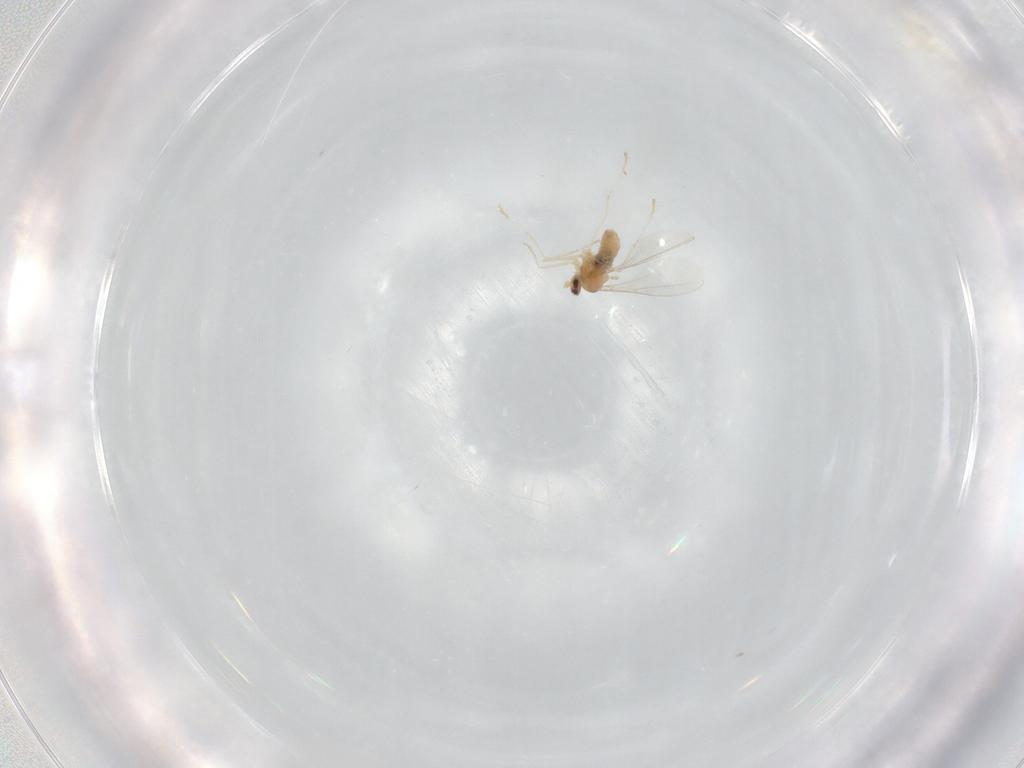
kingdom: Animalia
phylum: Arthropoda
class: Insecta
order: Diptera
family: Cecidomyiidae
